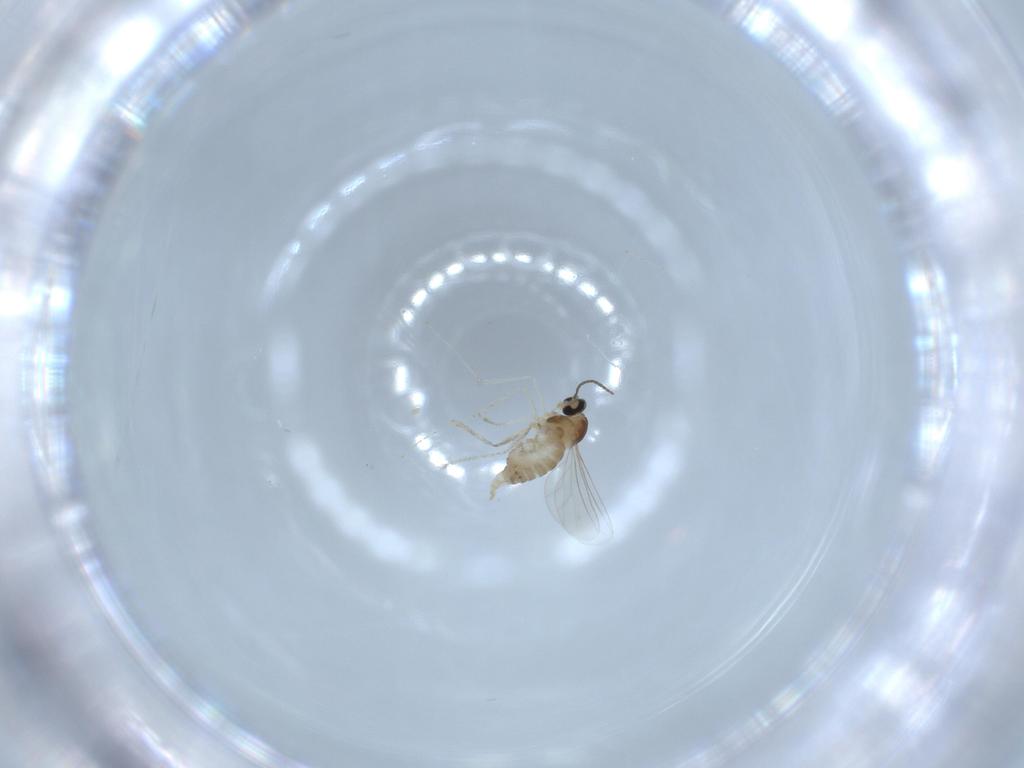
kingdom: Animalia
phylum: Arthropoda
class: Insecta
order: Diptera
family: Cecidomyiidae
